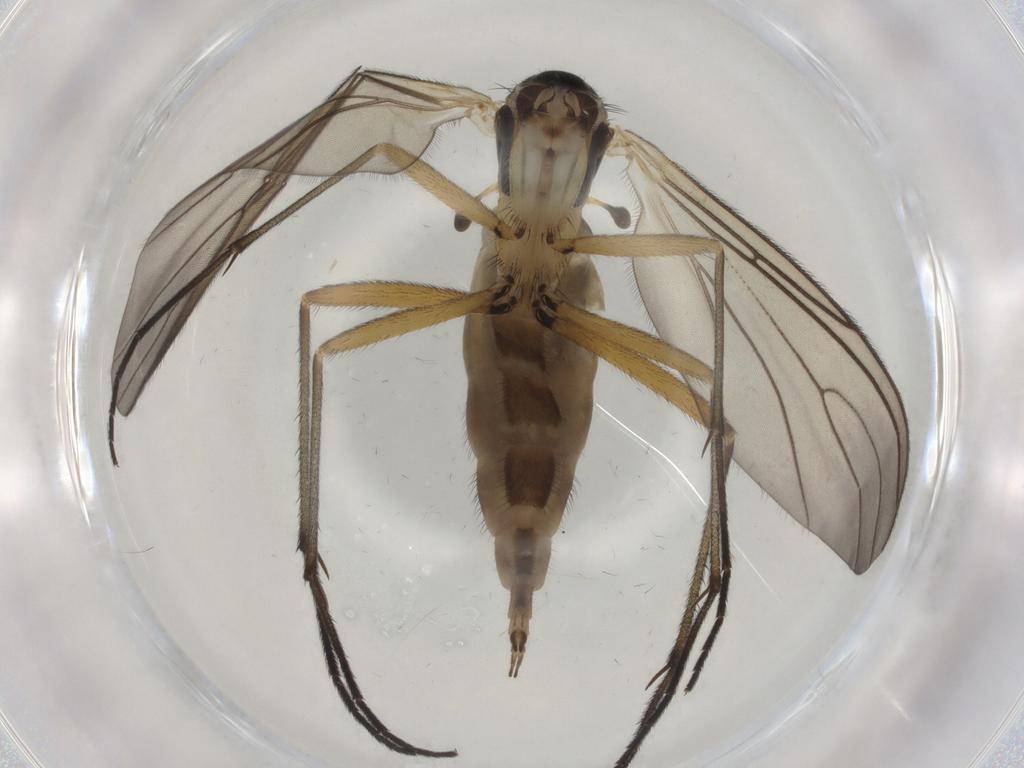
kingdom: Animalia
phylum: Arthropoda
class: Insecta
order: Diptera
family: Sciaridae
